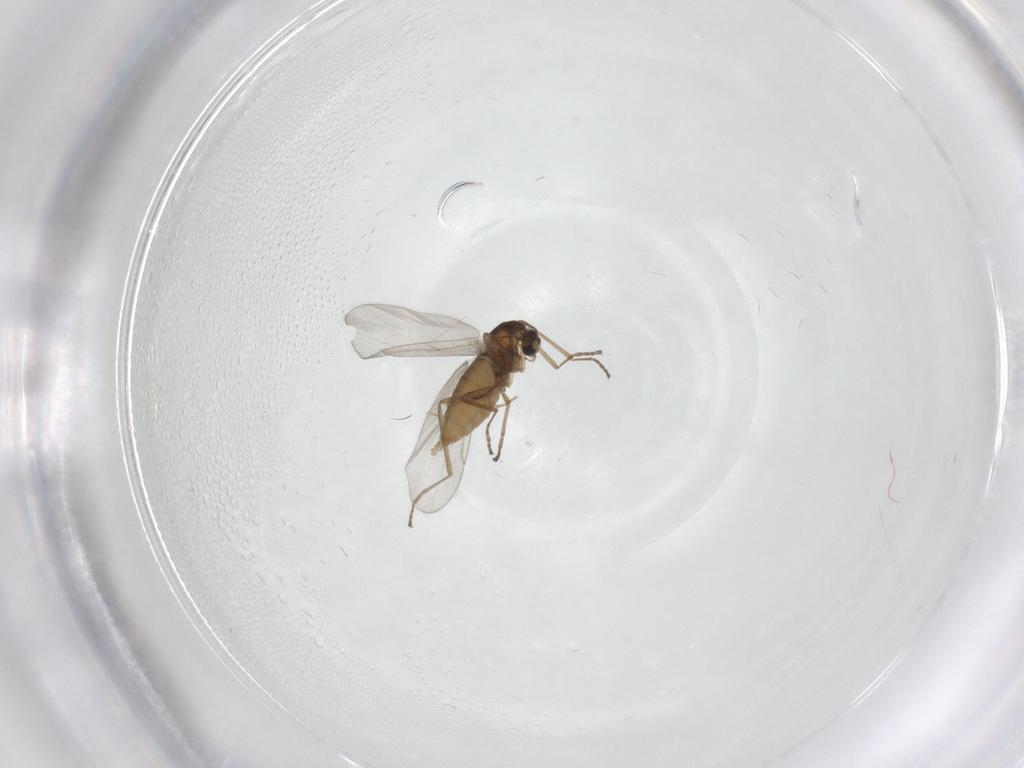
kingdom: Animalia
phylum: Arthropoda
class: Insecta
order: Diptera
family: Cecidomyiidae
